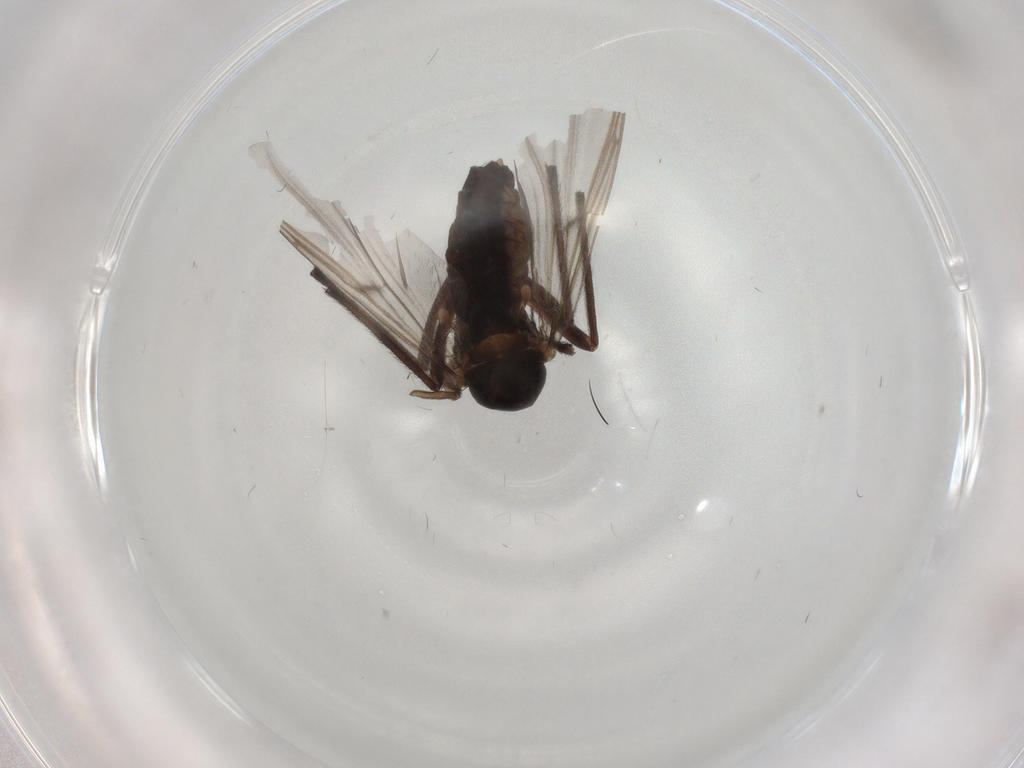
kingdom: Animalia
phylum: Arthropoda
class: Insecta
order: Diptera
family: Chironomidae
